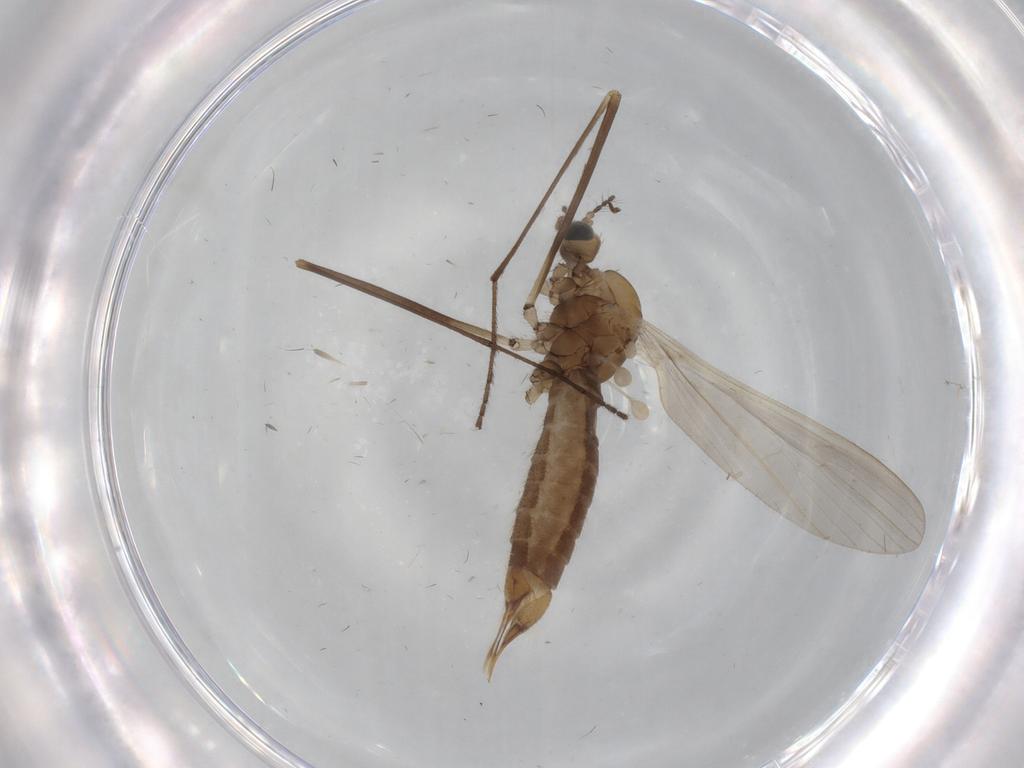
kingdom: Animalia
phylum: Arthropoda
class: Insecta
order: Diptera
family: Limoniidae
